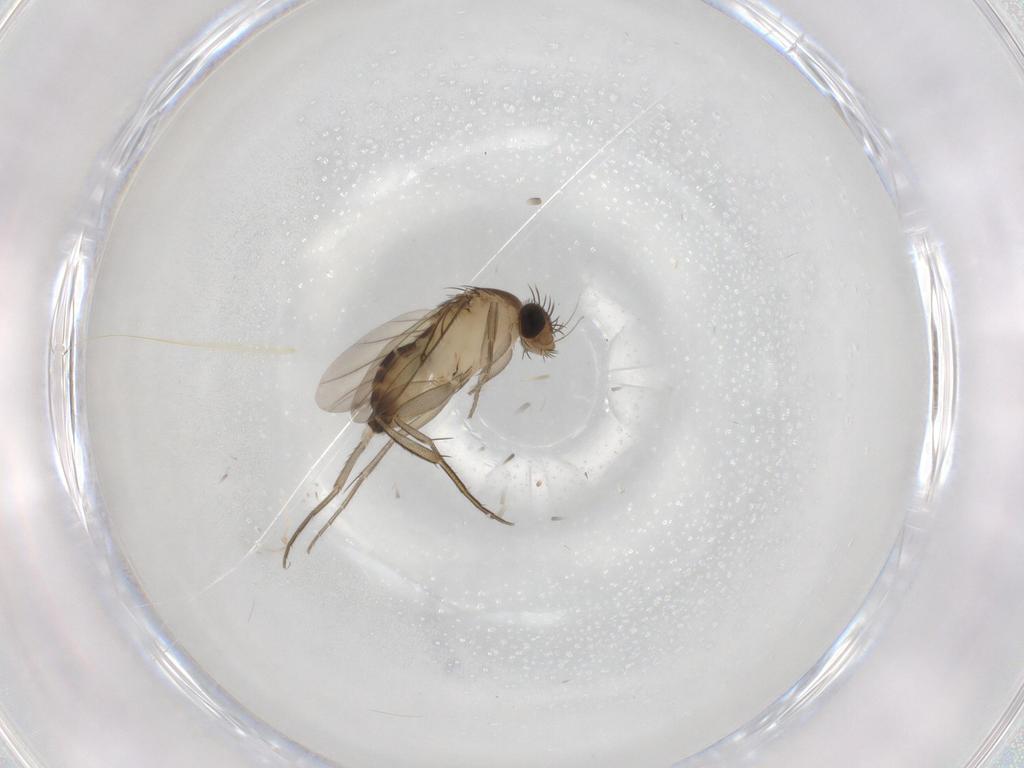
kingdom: Animalia
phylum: Arthropoda
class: Insecta
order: Diptera
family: Phoridae
